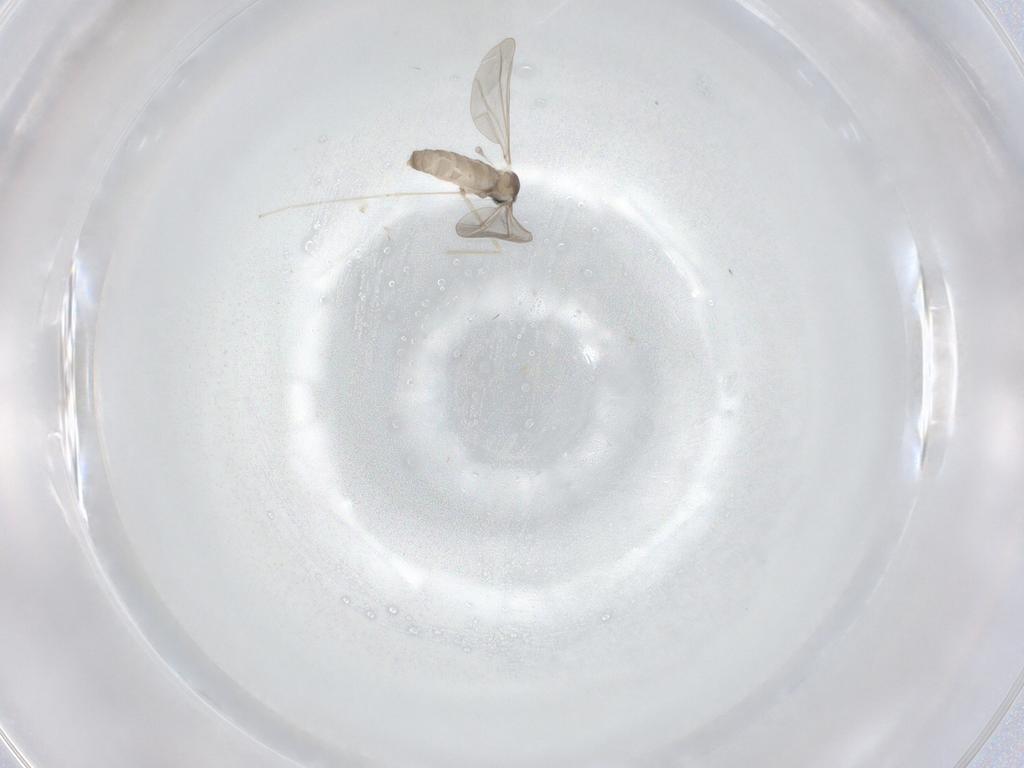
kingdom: Animalia
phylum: Arthropoda
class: Insecta
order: Diptera
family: Cecidomyiidae
